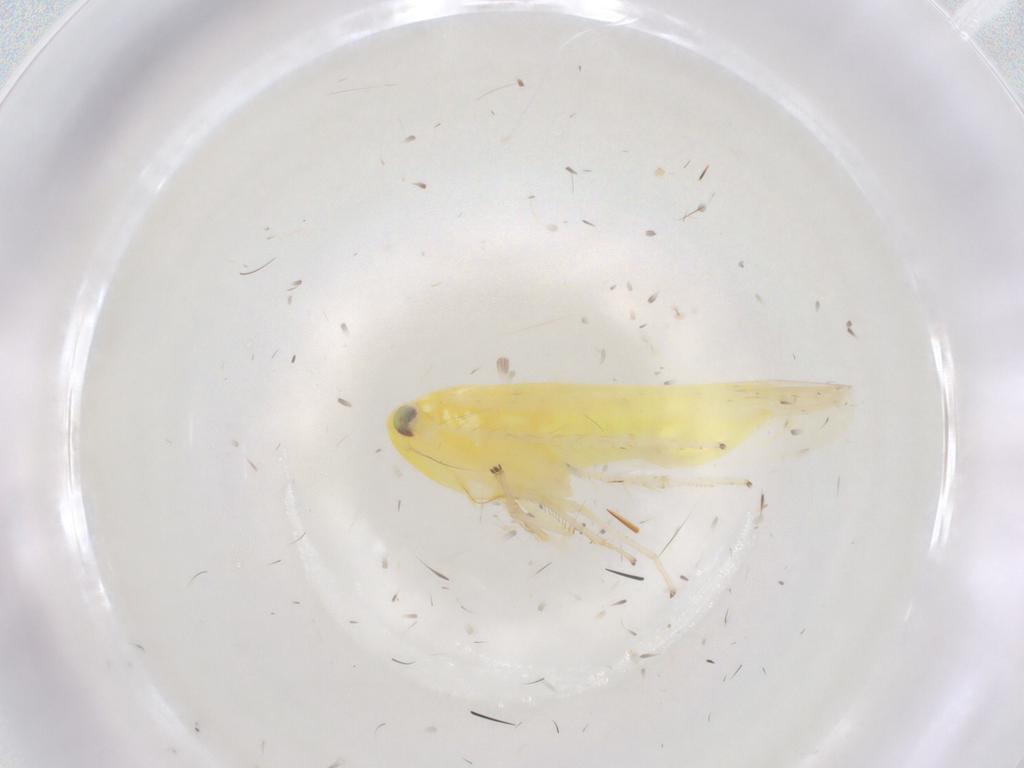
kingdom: Animalia
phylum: Arthropoda
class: Insecta
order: Hemiptera
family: Cicadellidae
